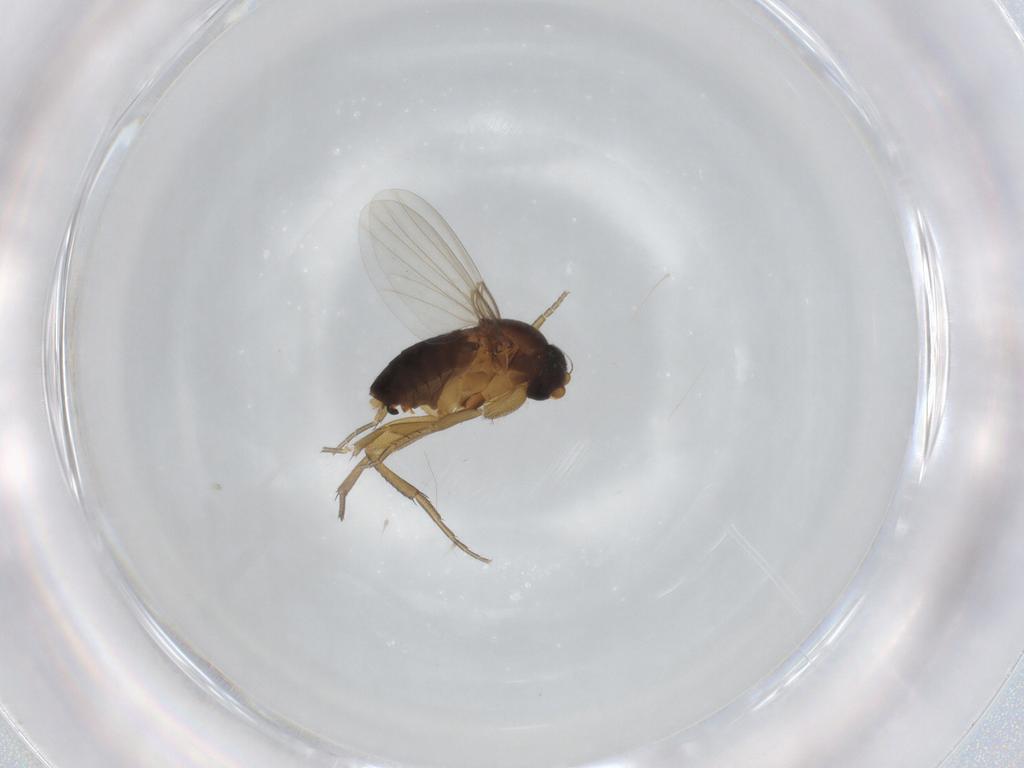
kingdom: Animalia
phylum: Arthropoda
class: Insecta
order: Diptera
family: Phoridae
